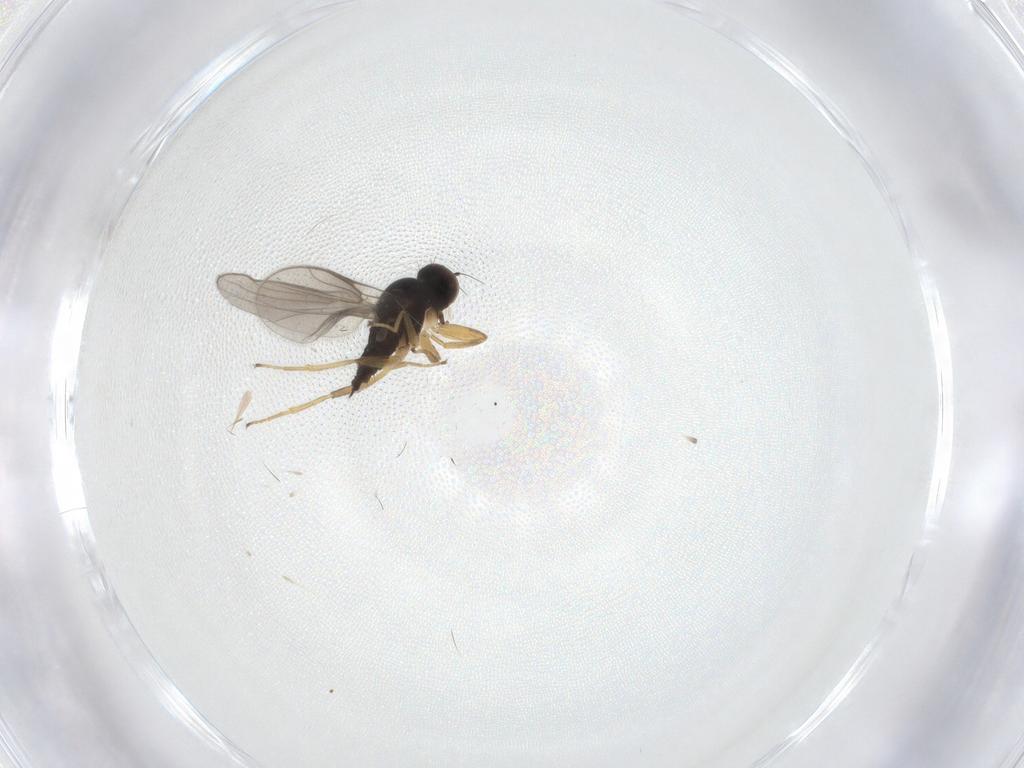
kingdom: Animalia
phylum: Arthropoda
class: Insecta
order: Diptera
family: Hybotidae
